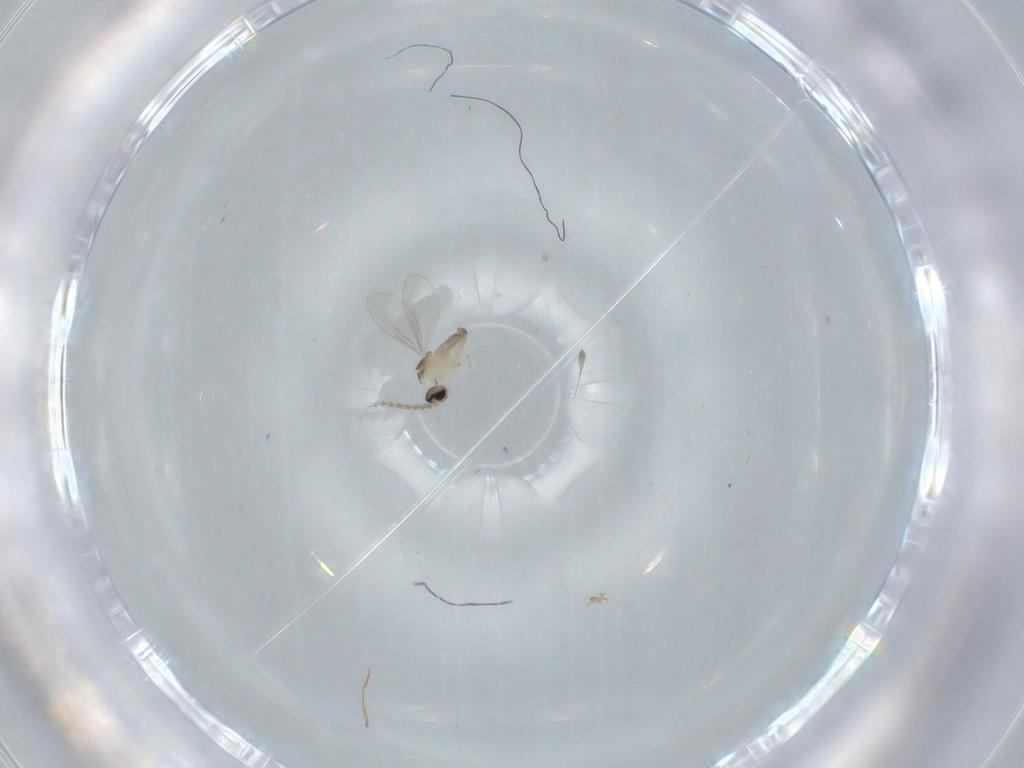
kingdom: Animalia
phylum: Arthropoda
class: Insecta
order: Diptera
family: Cecidomyiidae
